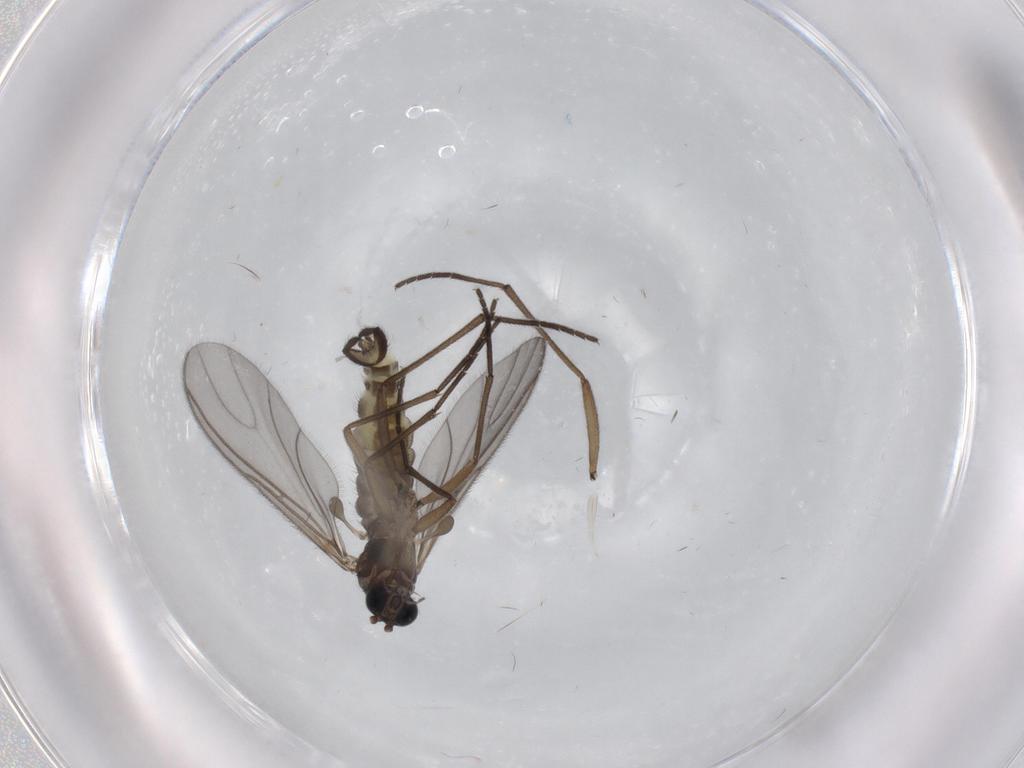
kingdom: Animalia
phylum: Arthropoda
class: Insecta
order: Diptera
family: Sciaridae
